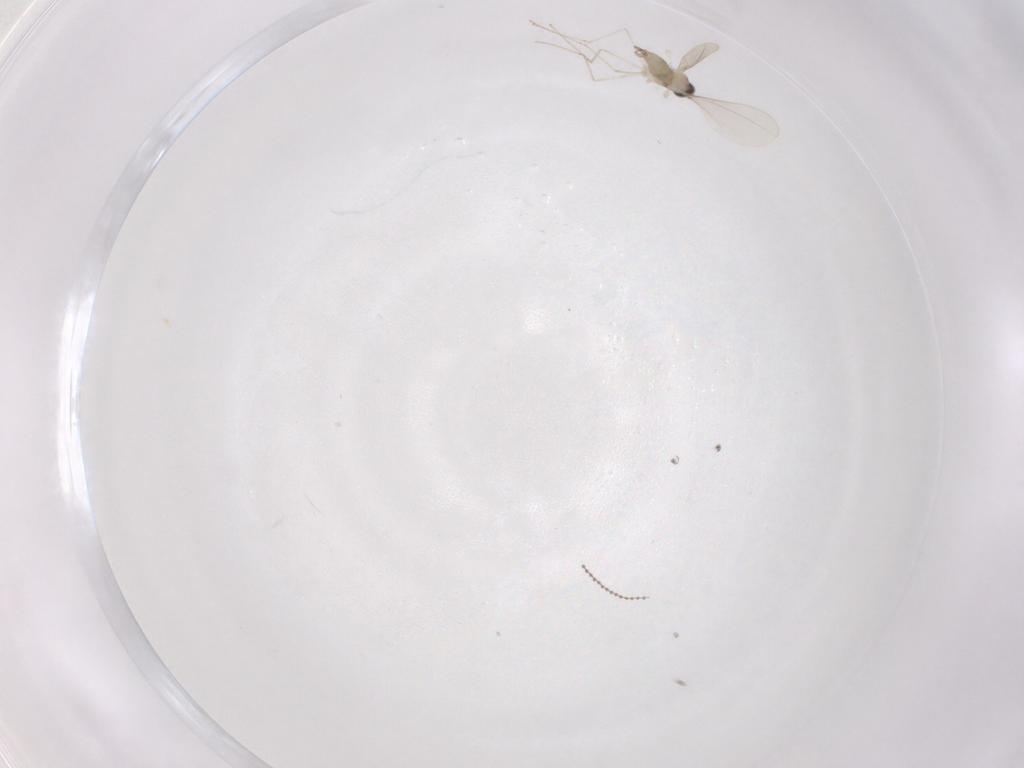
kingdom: Animalia
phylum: Arthropoda
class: Insecta
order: Diptera
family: Cecidomyiidae
